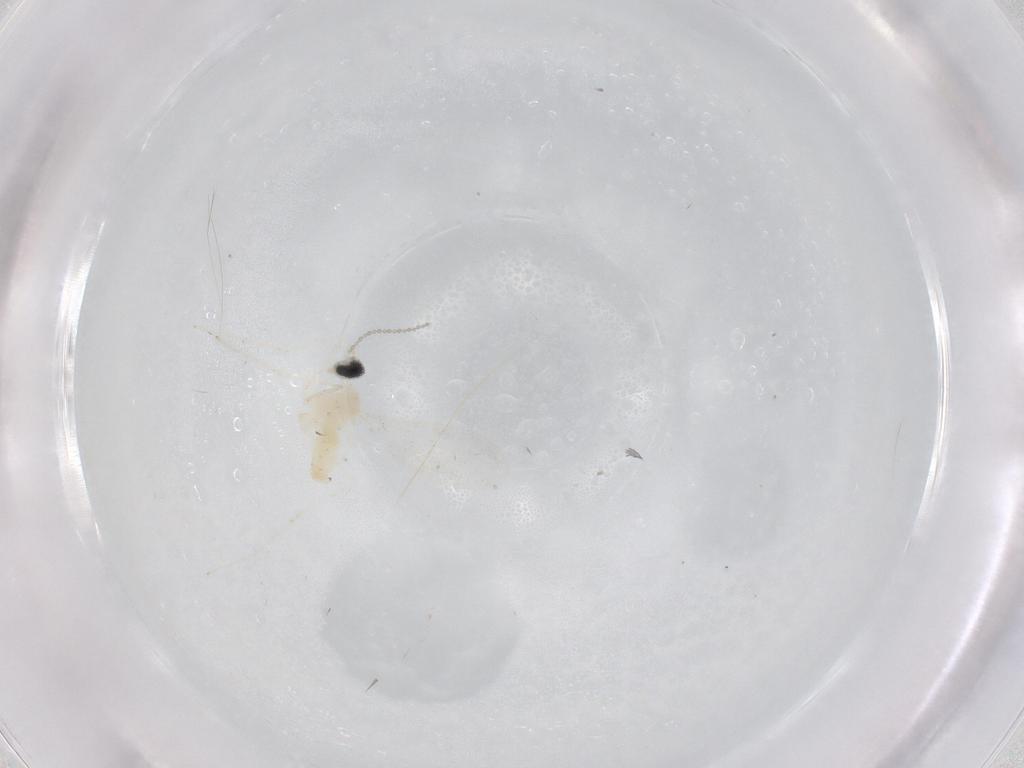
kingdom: Animalia
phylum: Arthropoda
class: Insecta
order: Diptera
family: Cecidomyiidae
